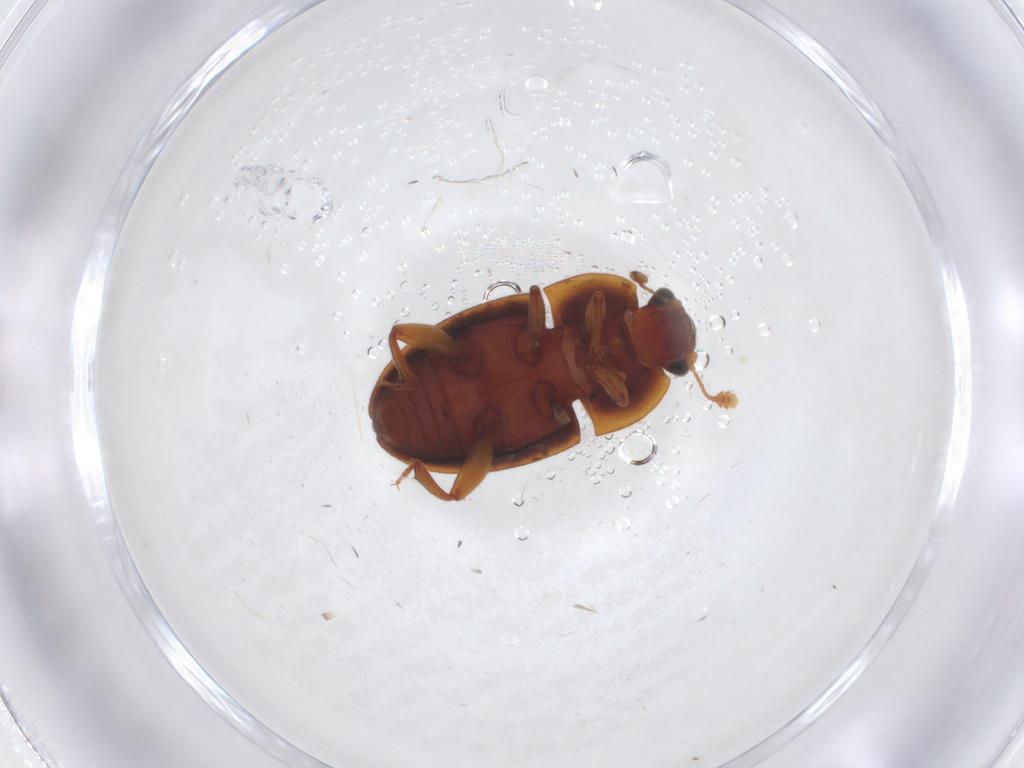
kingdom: Animalia
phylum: Arthropoda
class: Insecta
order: Coleoptera
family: Nitidulidae
